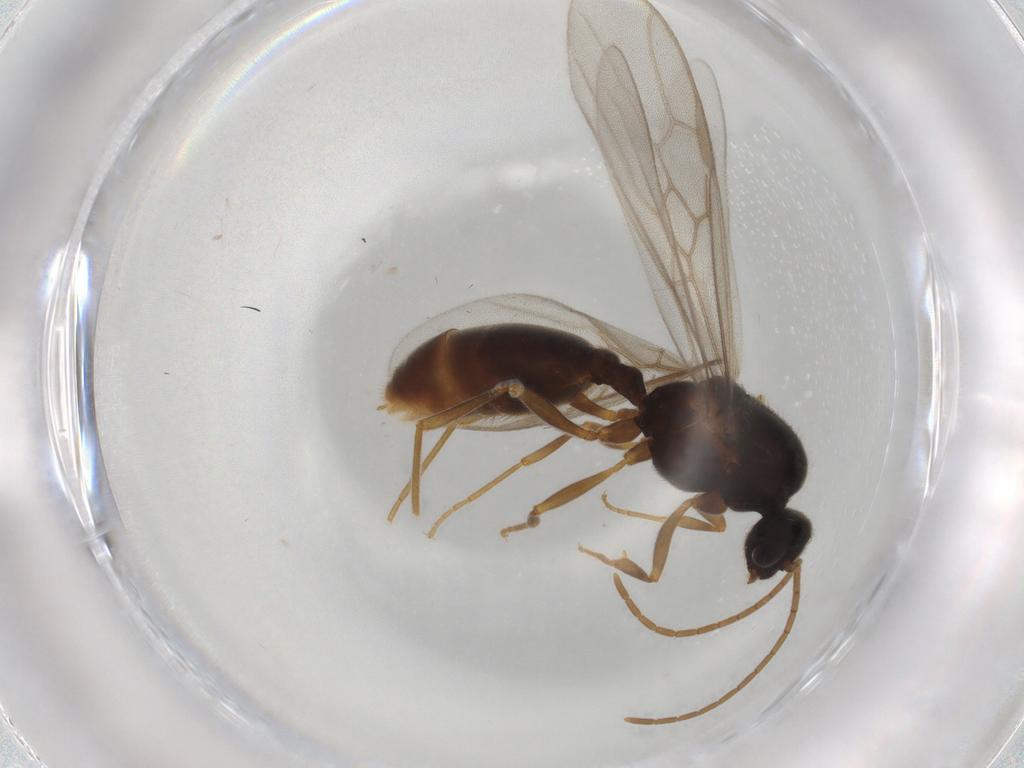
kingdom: Animalia
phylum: Arthropoda
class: Insecta
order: Hymenoptera
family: Formicidae
